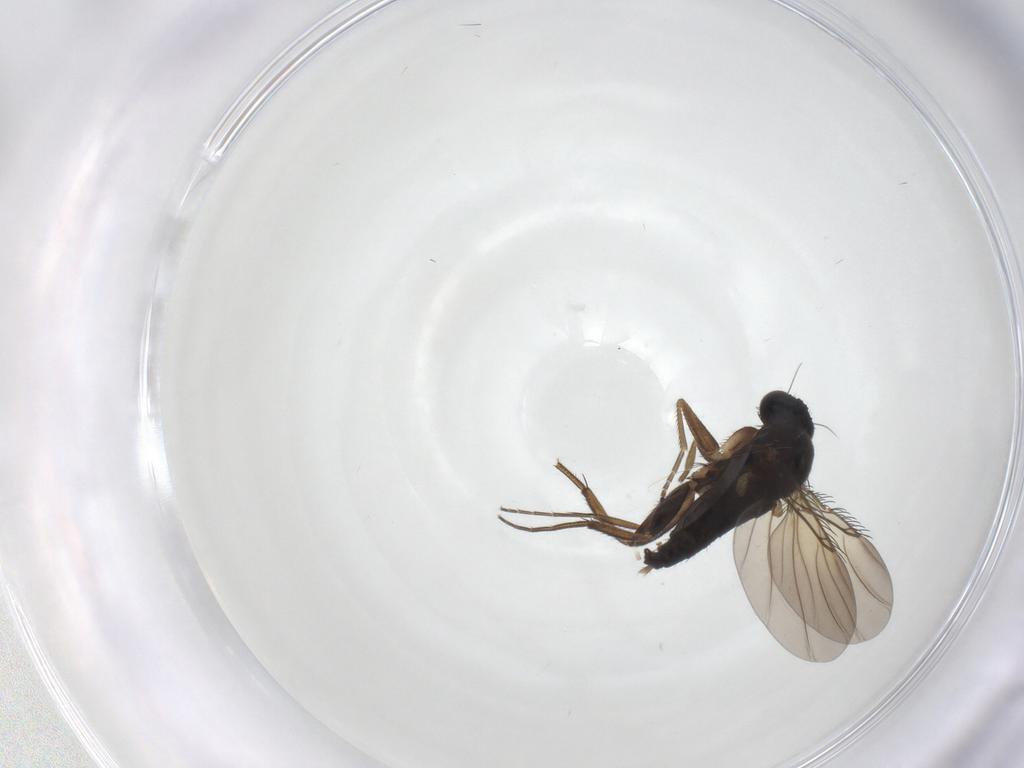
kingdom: Animalia
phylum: Arthropoda
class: Insecta
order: Diptera
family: Phoridae
